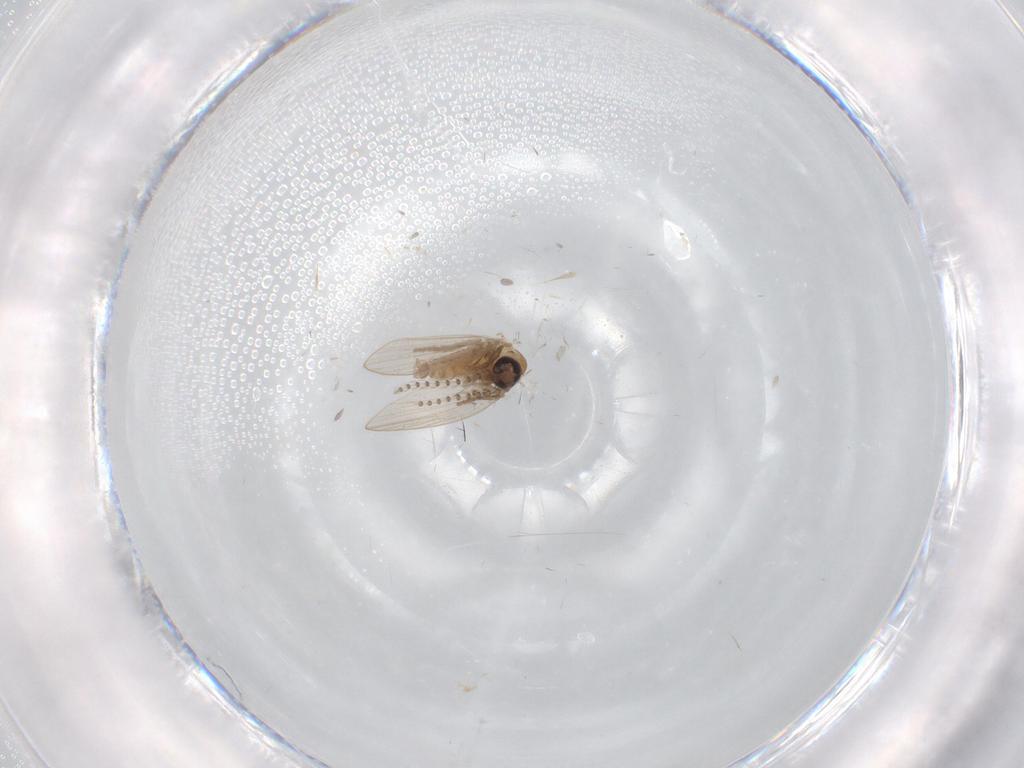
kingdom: Animalia
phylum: Arthropoda
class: Insecta
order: Diptera
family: Psychodidae
